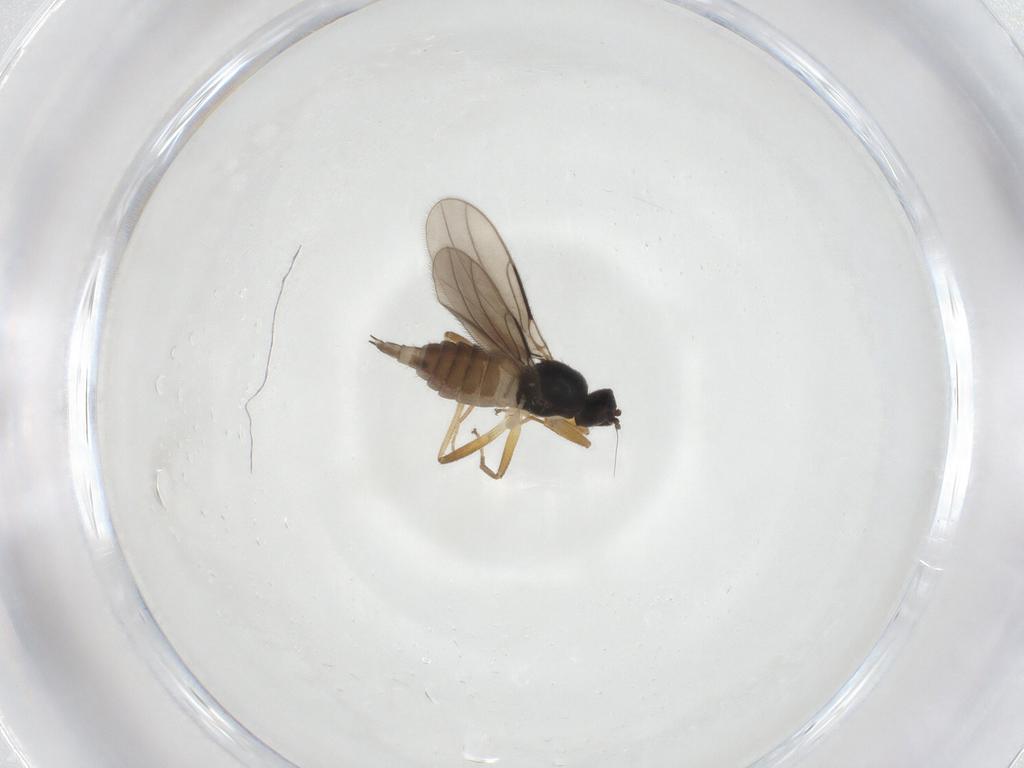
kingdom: Animalia
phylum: Arthropoda
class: Insecta
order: Diptera
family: Hybotidae
